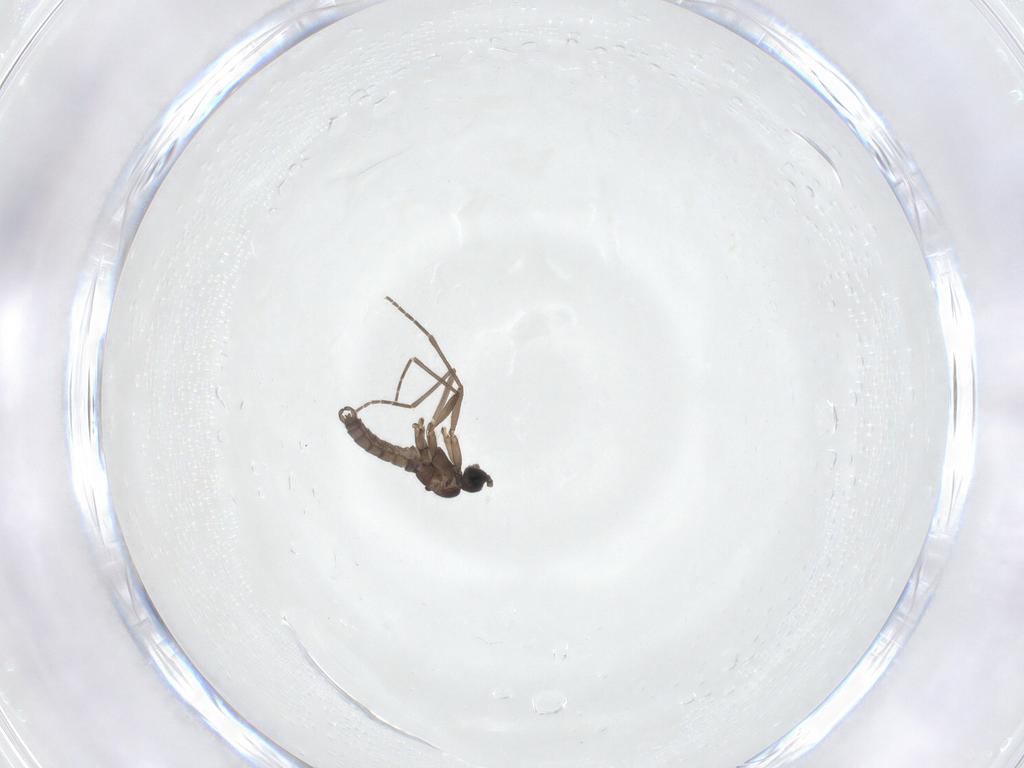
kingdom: Animalia
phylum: Arthropoda
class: Insecta
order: Diptera
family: Sciaridae
